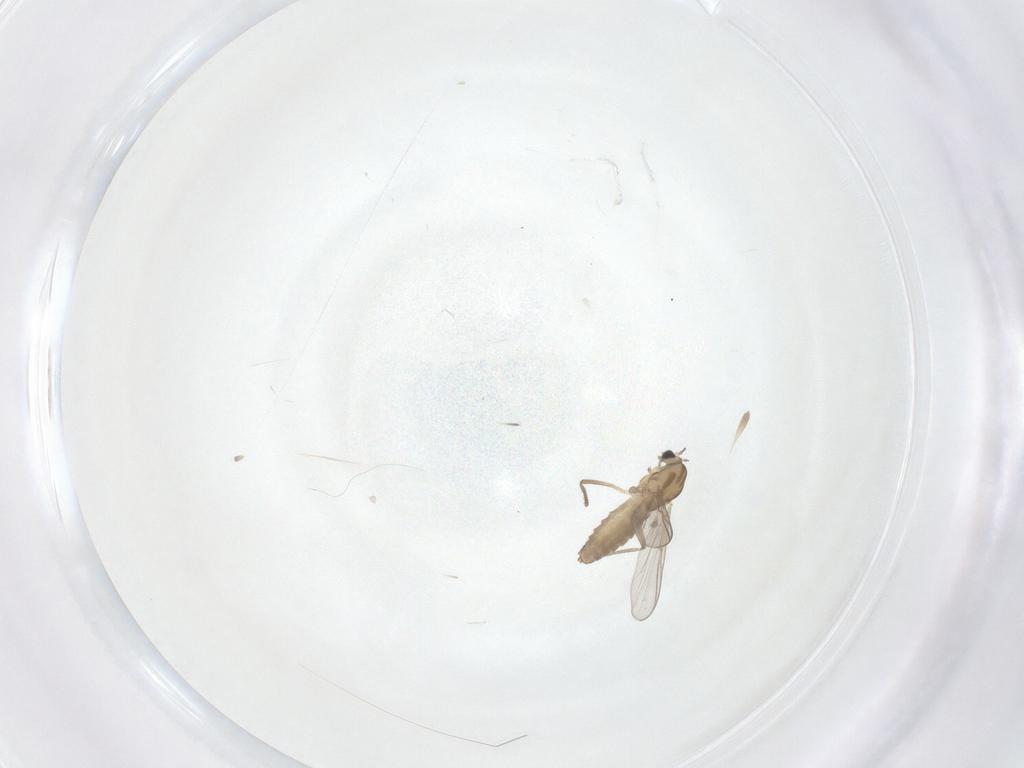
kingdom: Animalia
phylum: Arthropoda
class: Insecta
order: Diptera
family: Chironomidae
